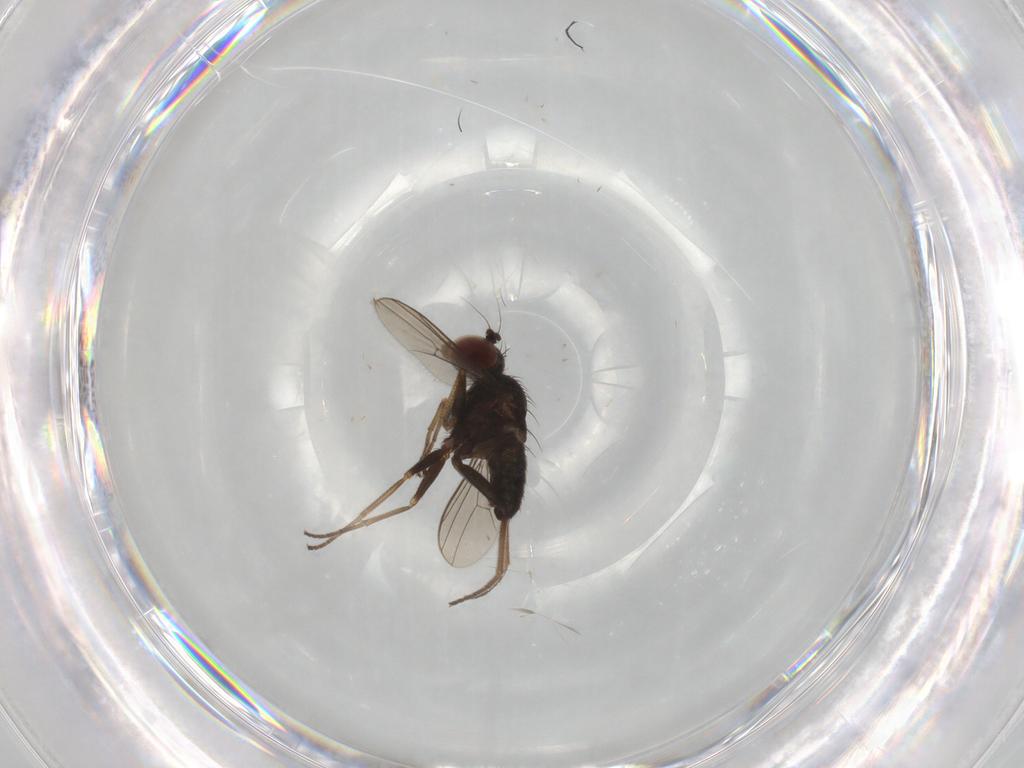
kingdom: Animalia
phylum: Arthropoda
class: Insecta
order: Diptera
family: Dolichopodidae
